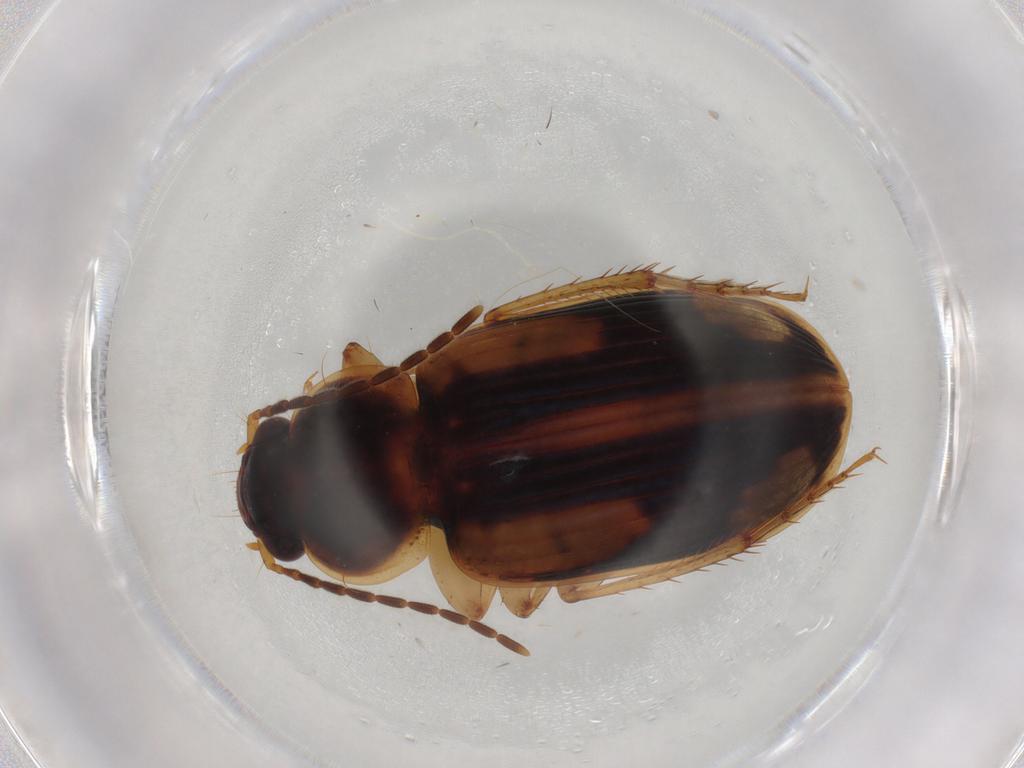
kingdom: Animalia
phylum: Arthropoda
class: Insecta
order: Coleoptera
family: Carabidae
